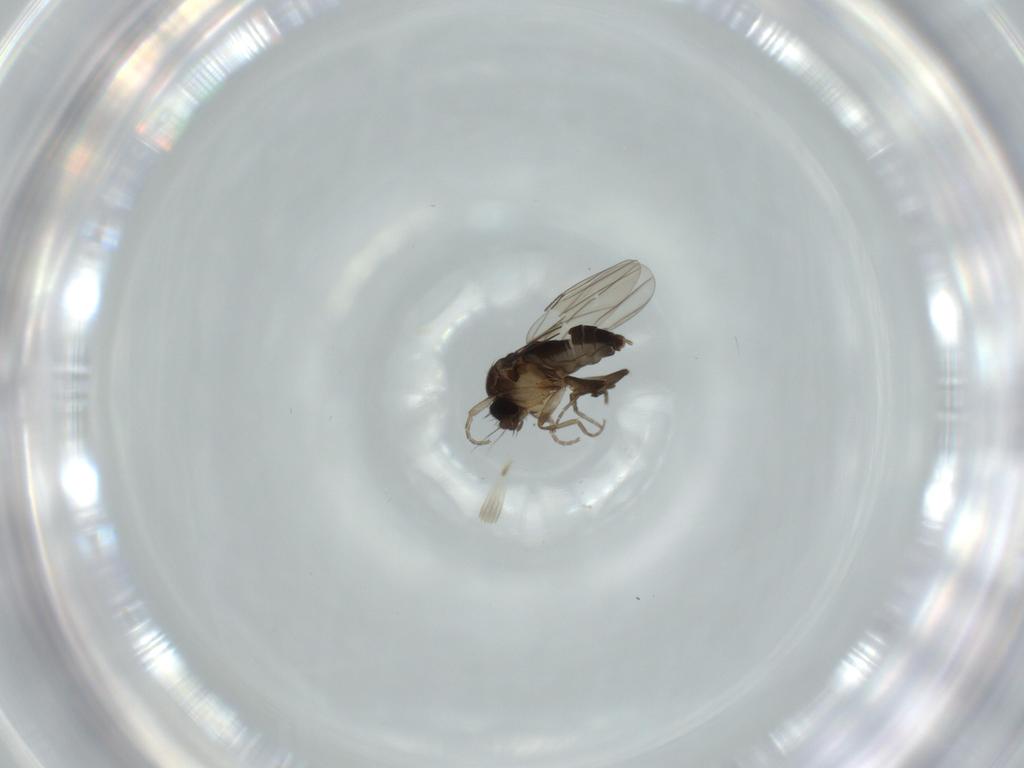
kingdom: Animalia
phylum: Arthropoda
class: Insecta
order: Diptera
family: Phoridae
